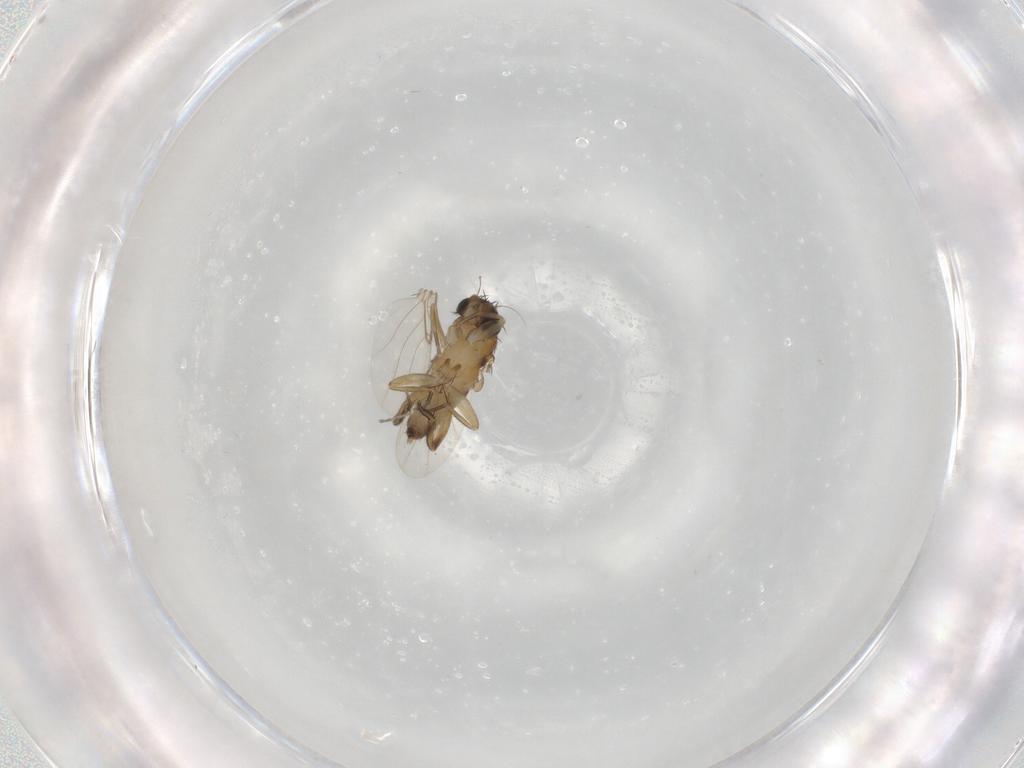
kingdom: Animalia
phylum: Arthropoda
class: Insecta
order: Diptera
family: Phoridae
